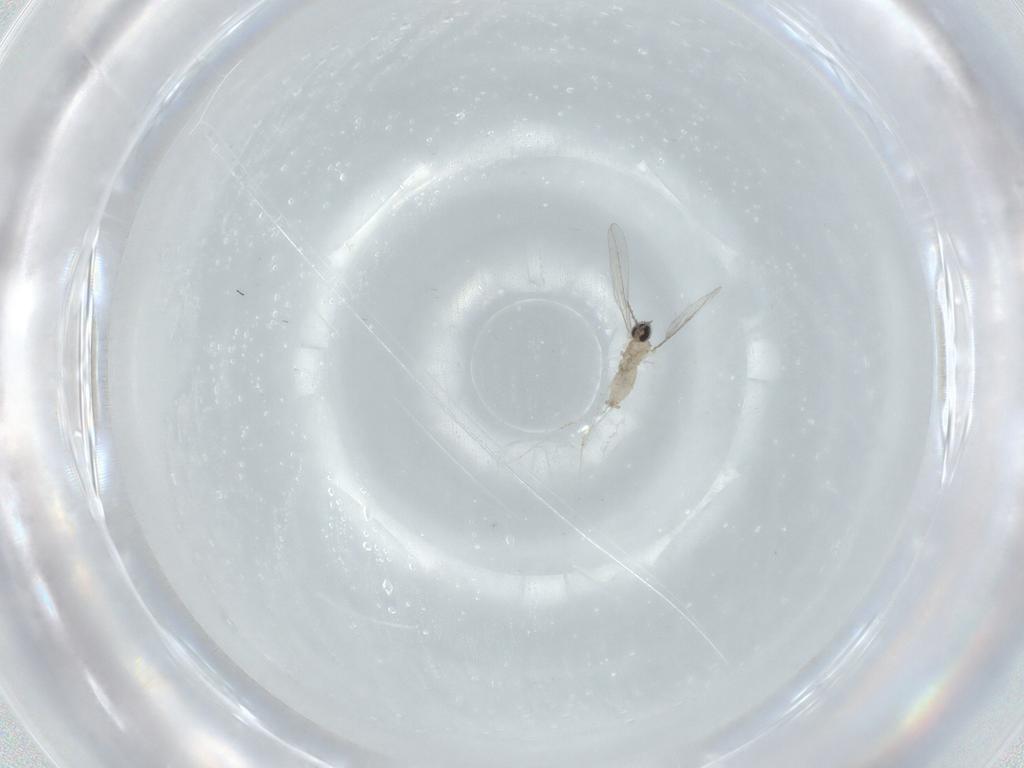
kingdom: Animalia
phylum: Arthropoda
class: Insecta
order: Diptera
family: Cecidomyiidae
